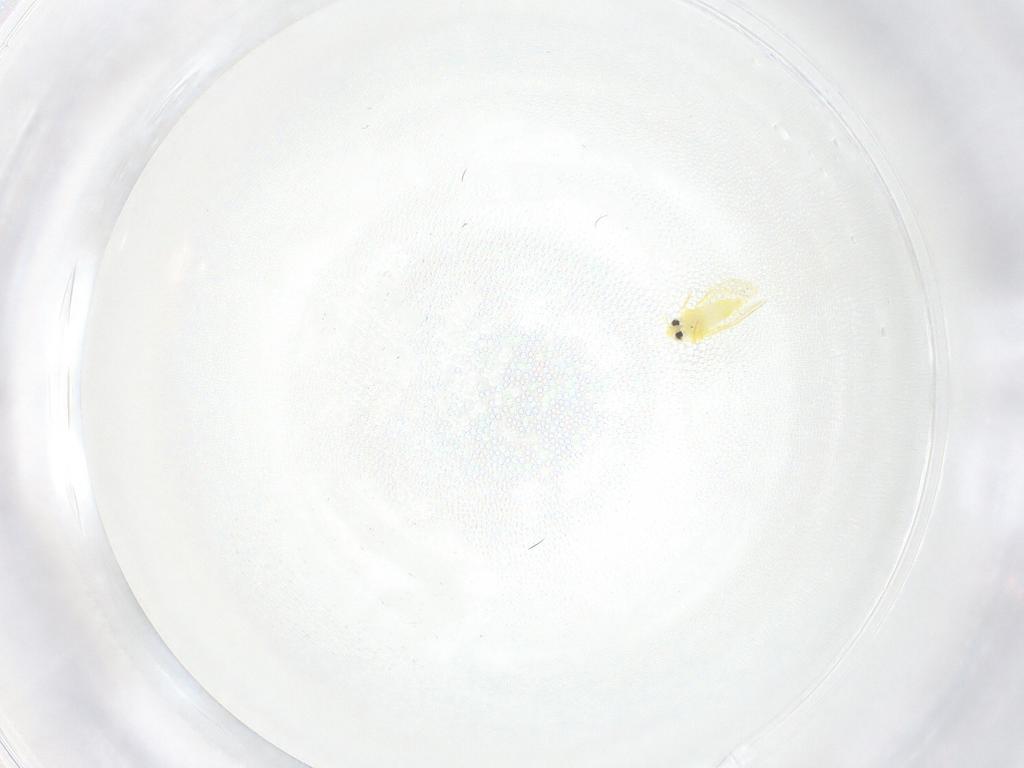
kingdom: Animalia
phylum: Arthropoda
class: Insecta
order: Hemiptera
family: Aleyrodidae
